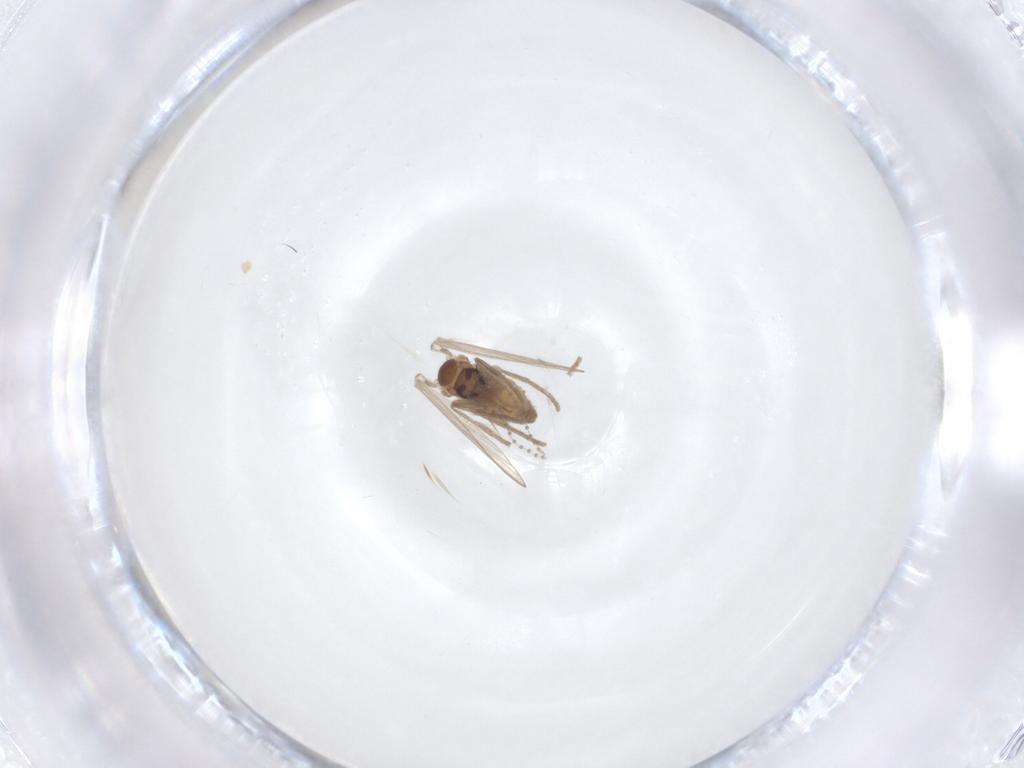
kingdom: Animalia
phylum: Arthropoda
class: Insecta
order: Diptera
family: Psychodidae
